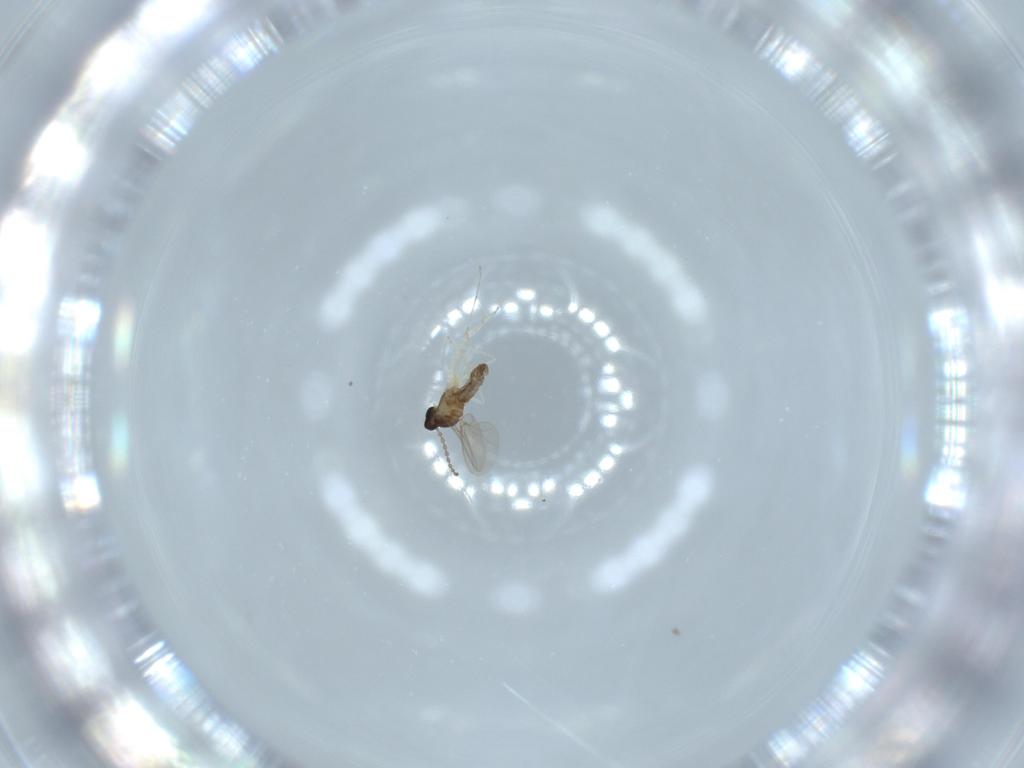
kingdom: Animalia
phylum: Arthropoda
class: Insecta
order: Diptera
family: Cecidomyiidae
